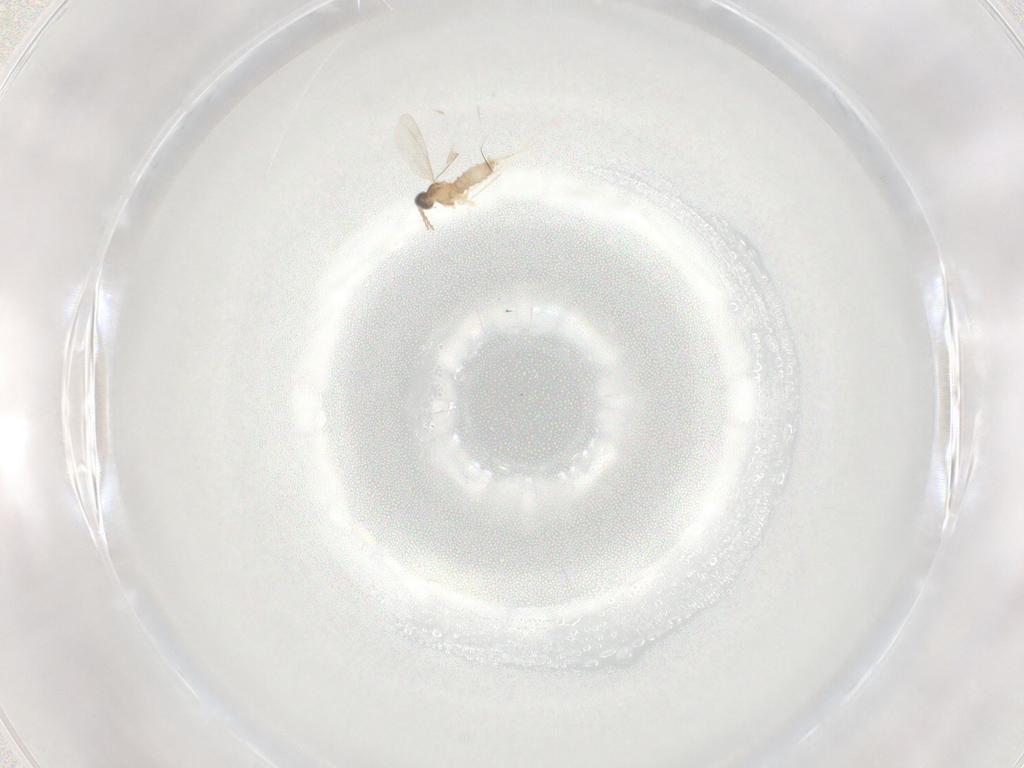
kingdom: Animalia
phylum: Arthropoda
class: Insecta
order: Diptera
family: Cecidomyiidae
